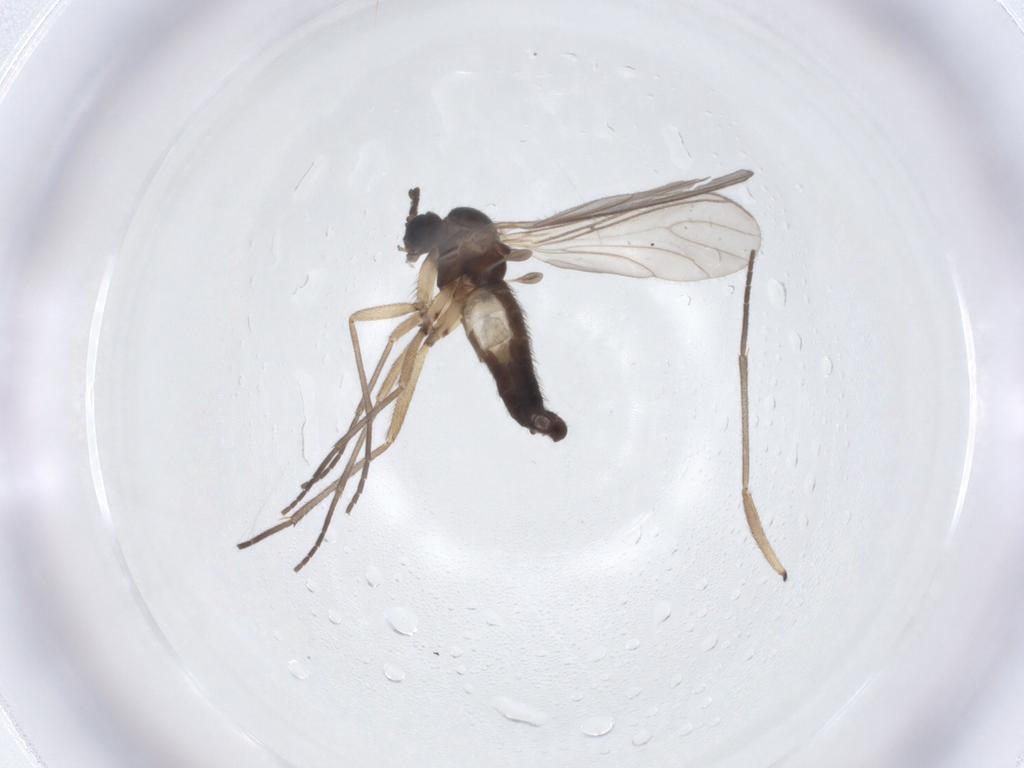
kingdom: Animalia
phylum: Arthropoda
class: Insecta
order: Diptera
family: Sciaridae
